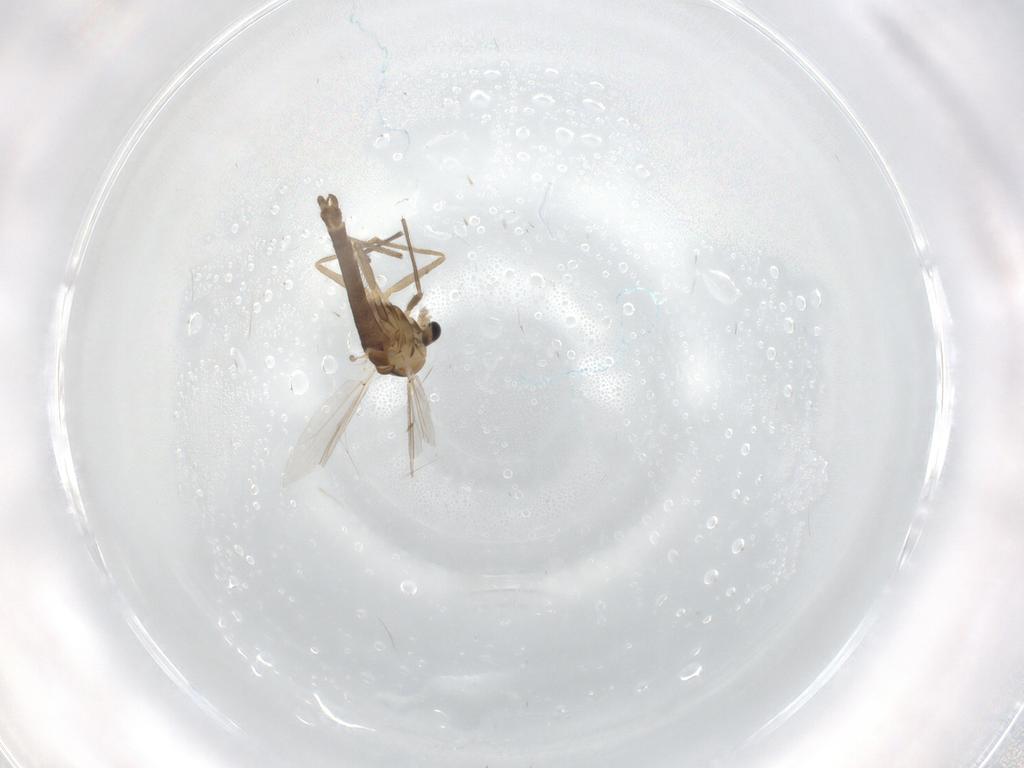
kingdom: Animalia
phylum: Arthropoda
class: Insecta
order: Diptera
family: Chironomidae
